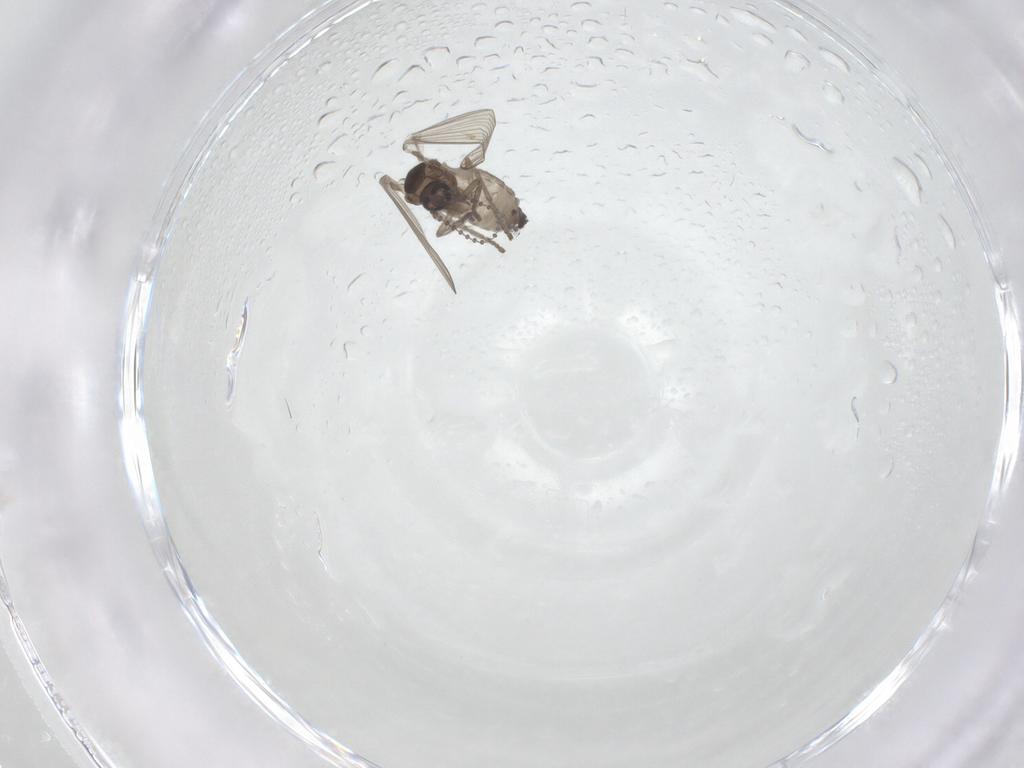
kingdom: Animalia
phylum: Arthropoda
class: Insecta
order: Diptera
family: Psychodidae
